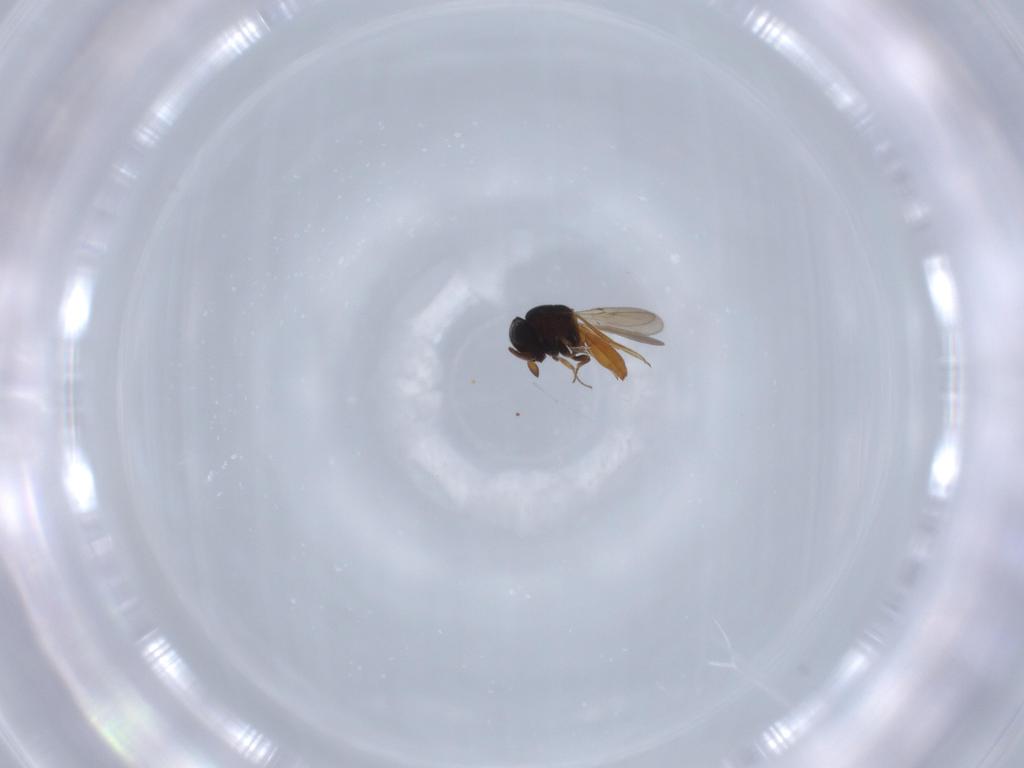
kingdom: Animalia
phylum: Arthropoda
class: Insecta
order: Hymenoptera
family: Scelionidae
